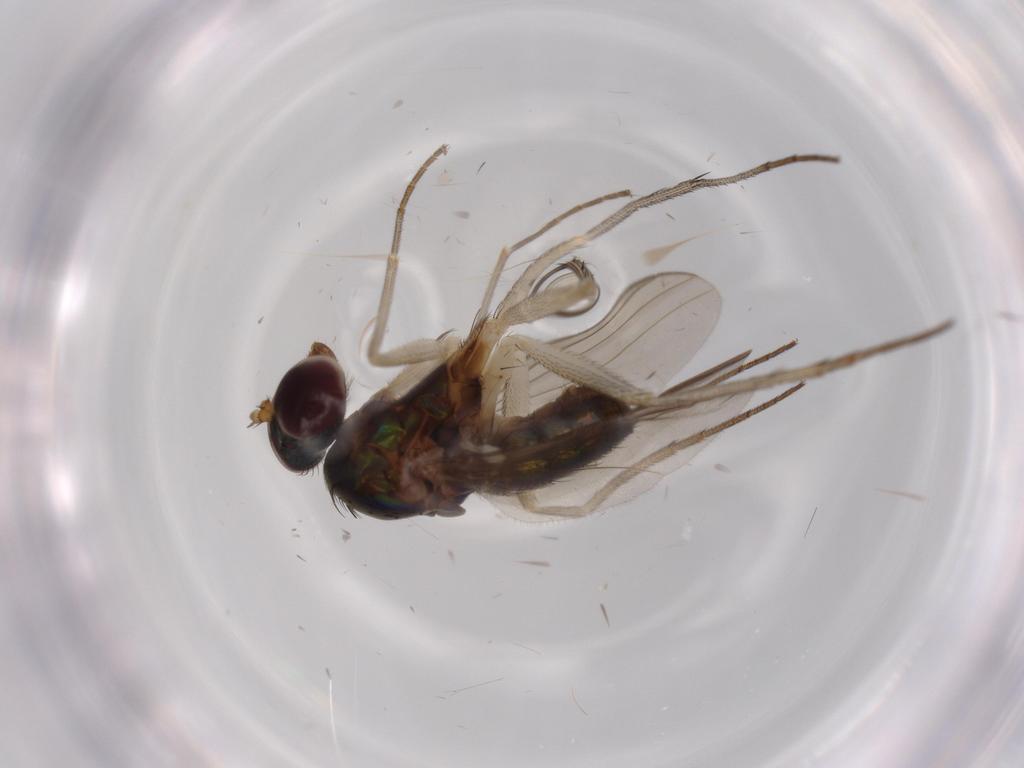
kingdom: Animalia
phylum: Arthropoda
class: Insecta
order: Diptera
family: Dolichopodidae
